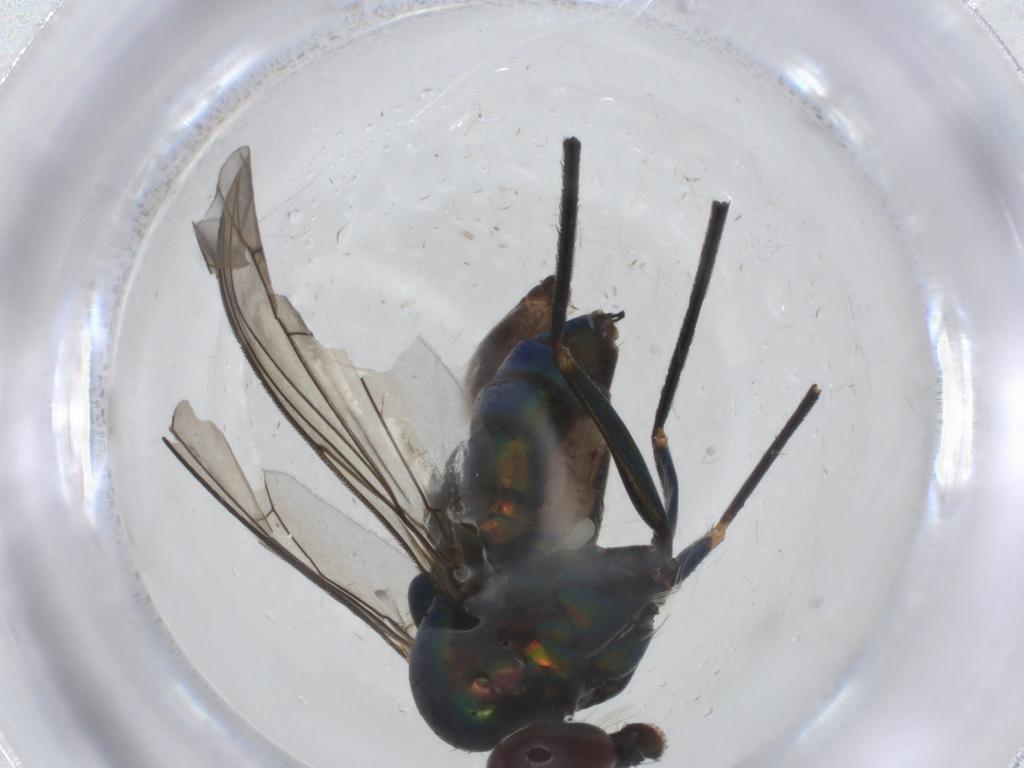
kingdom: Animalia
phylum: Arthropoda
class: Insecta
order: Diptera
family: Dolichopodidae
